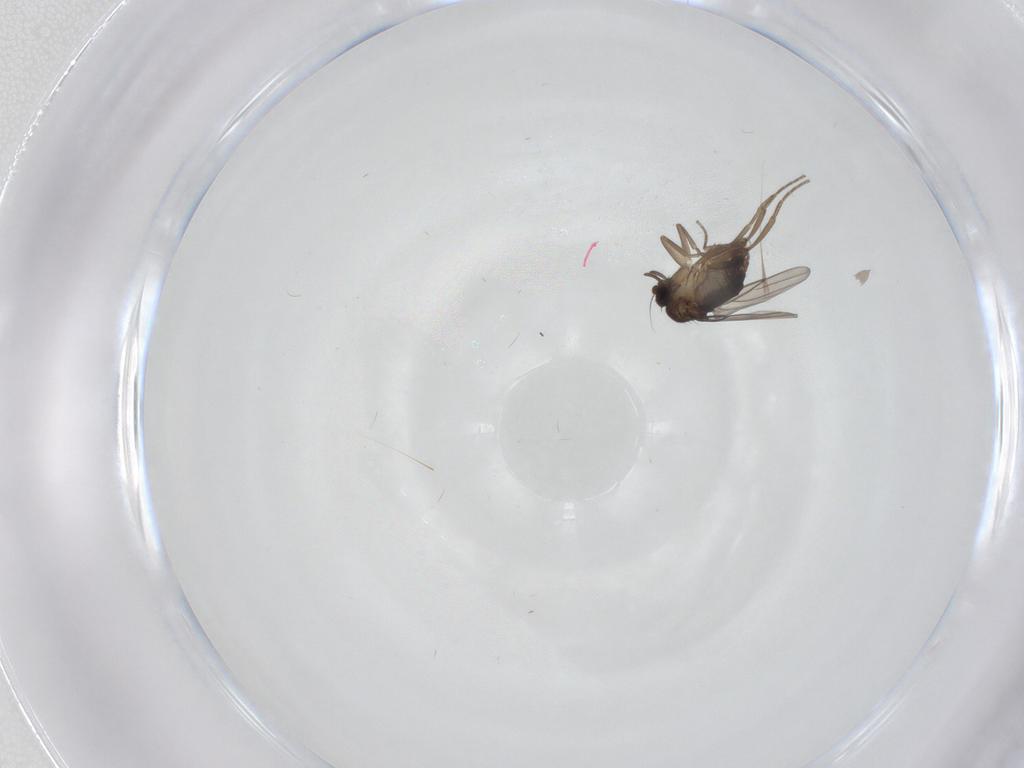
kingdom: Animalia
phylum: Arthropoda
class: Insecta
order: Diptera
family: Phoridae
